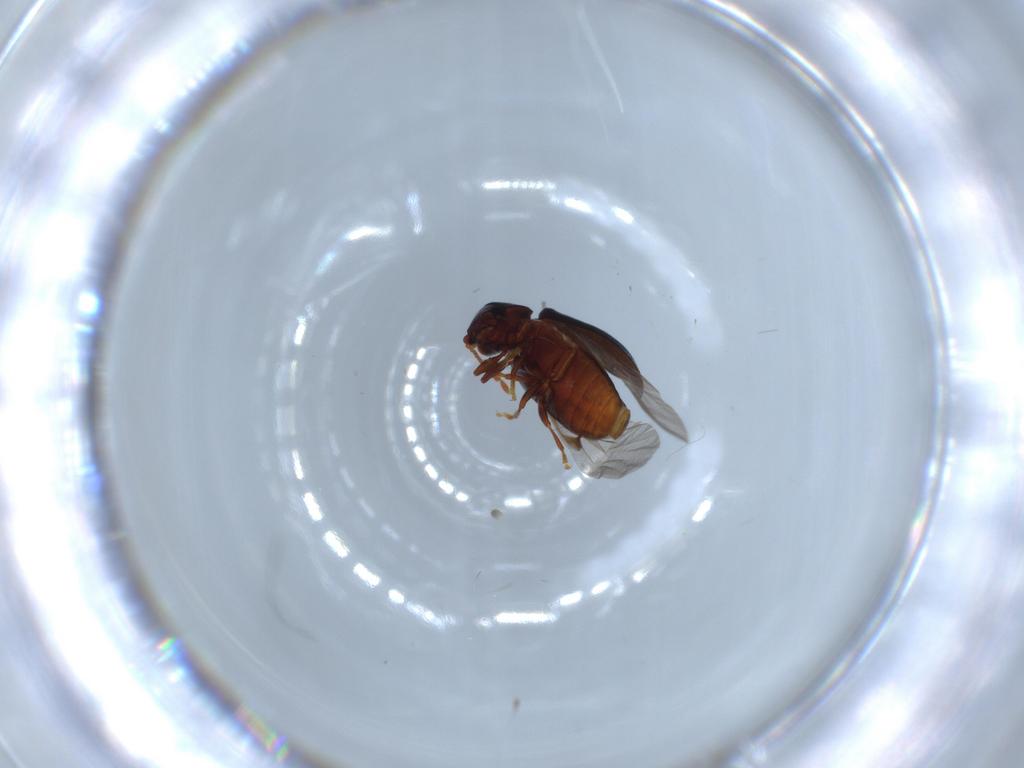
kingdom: Animalia
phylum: Arthropoda
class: Insecta
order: Coleoptera
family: Ptinidae
